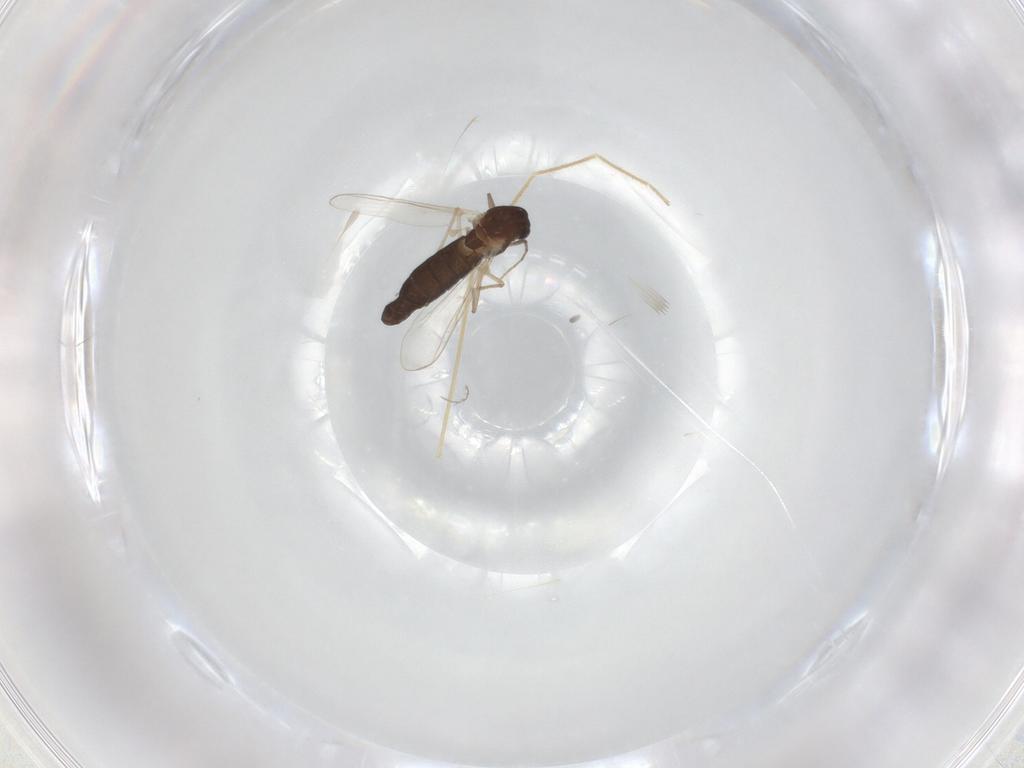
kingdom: Animalia
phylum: Arthropoda
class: Insecta
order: Diptera
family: Chironomidae
